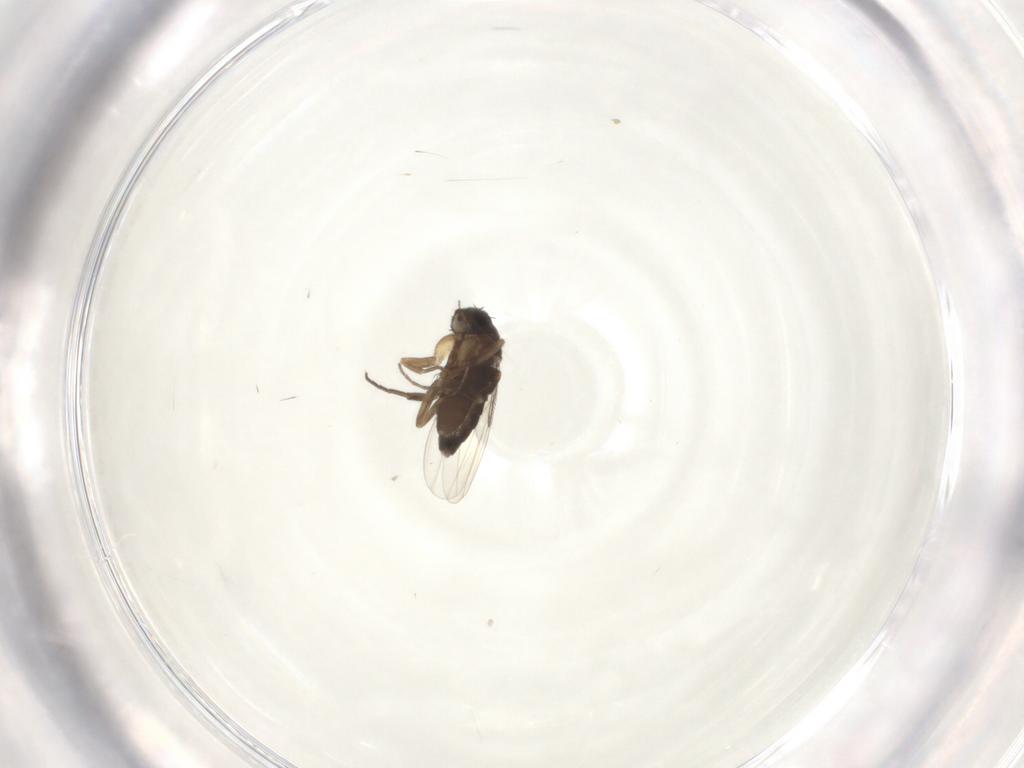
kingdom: Animalia
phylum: Arthropoda
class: Insecta
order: Diptera
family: Phoridae
